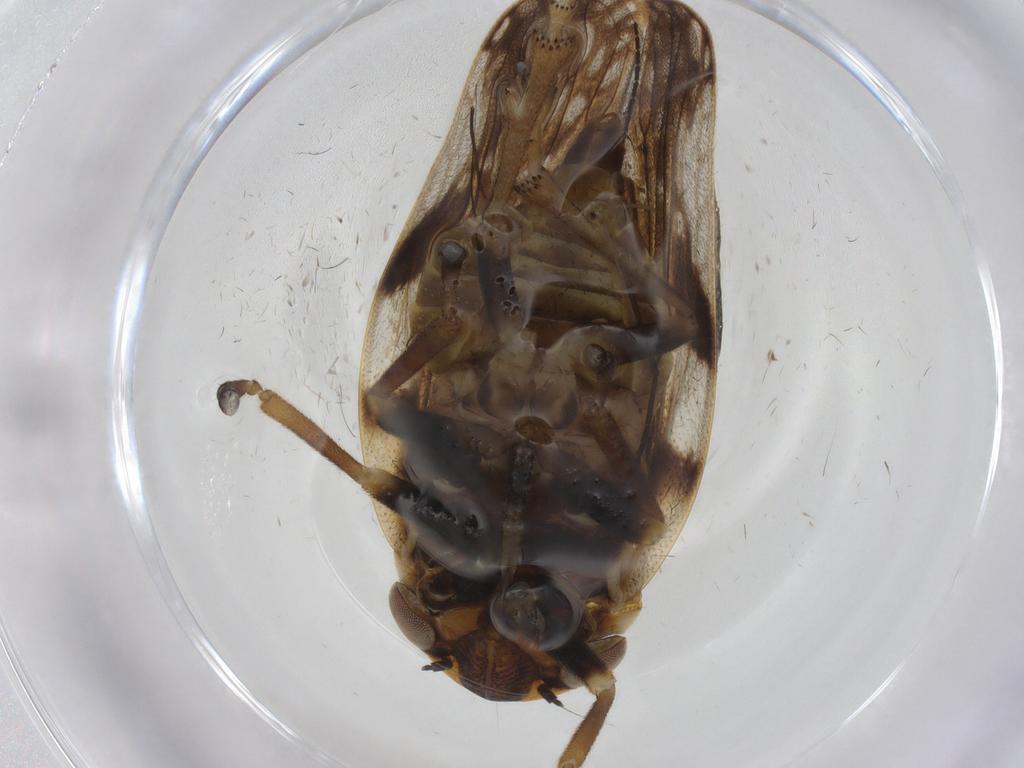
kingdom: Animalia
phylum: Arthropoda
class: Insecta
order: Hemiptera
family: Aphrophoridae
